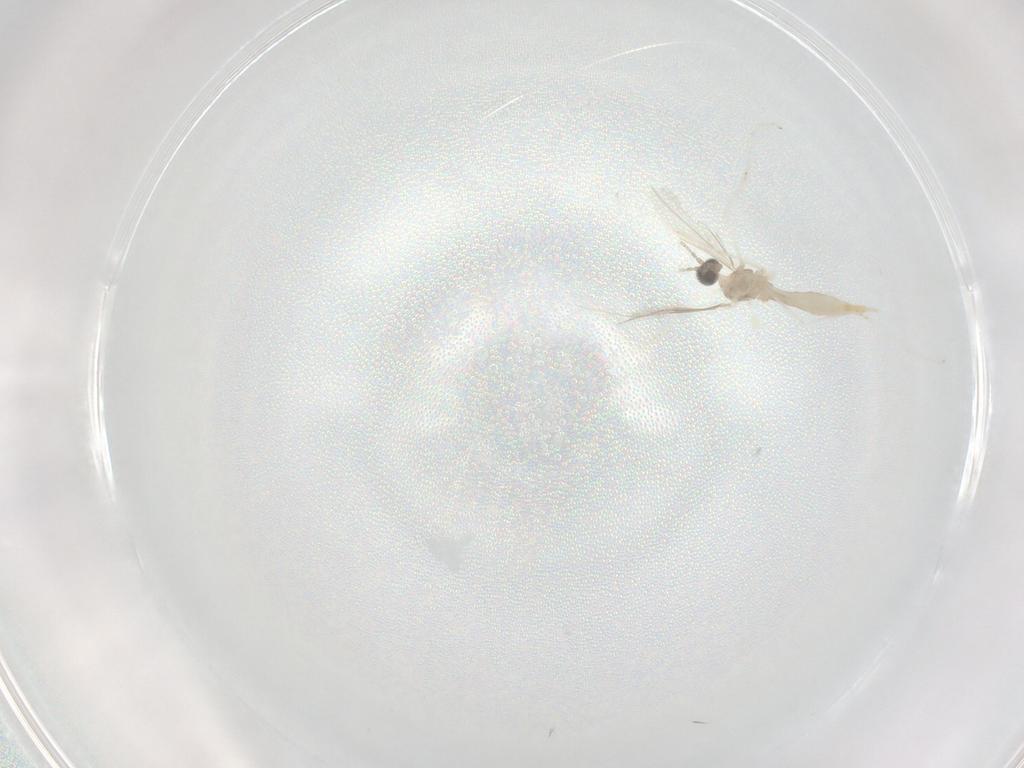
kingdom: Animalia
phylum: Arthropoda
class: Insecta
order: Diptera
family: Cecidomyiidae
